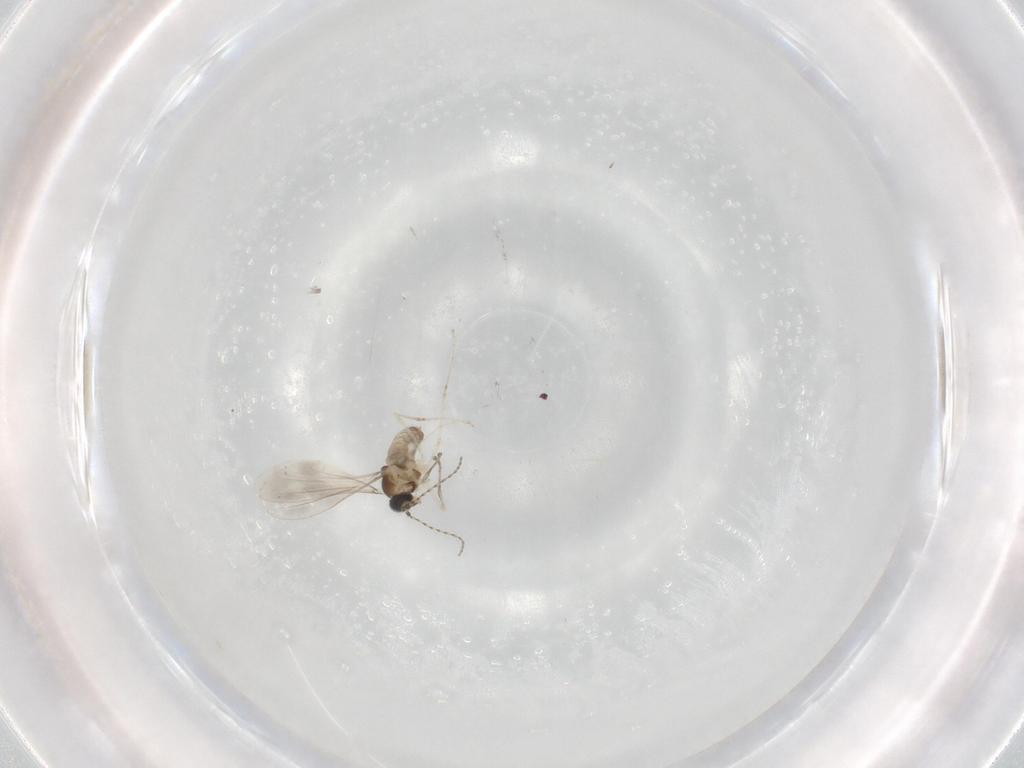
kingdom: Animalia
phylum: Arthropoda
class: Insecta
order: Diptera
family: Cecidomyiidae
